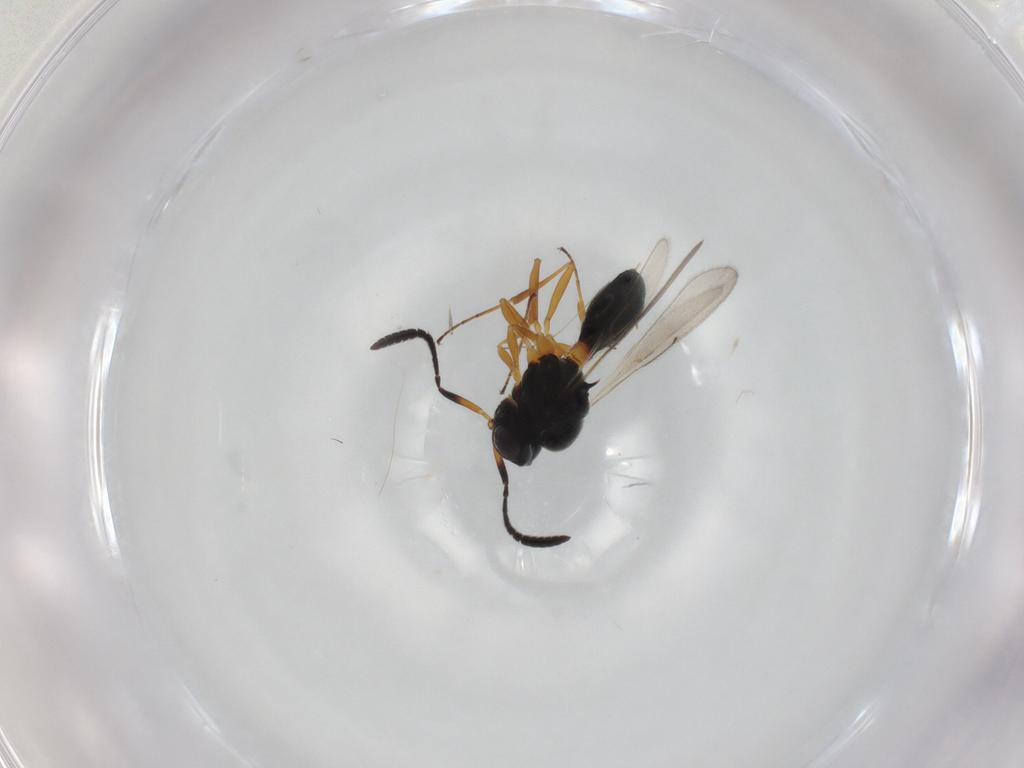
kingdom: Animalia
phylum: Arthropoda
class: Insecta
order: Hymenoptera
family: Scelionidae
